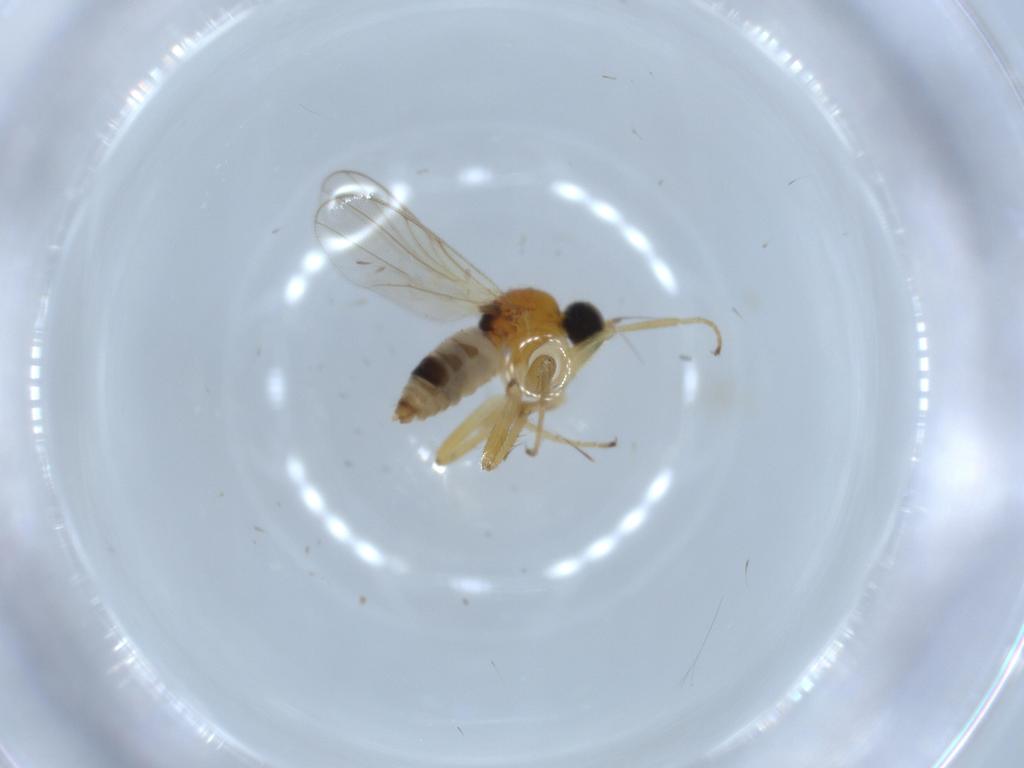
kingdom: Animalia
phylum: Arthropoda
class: Insecta
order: Diptera
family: Hybotidae
